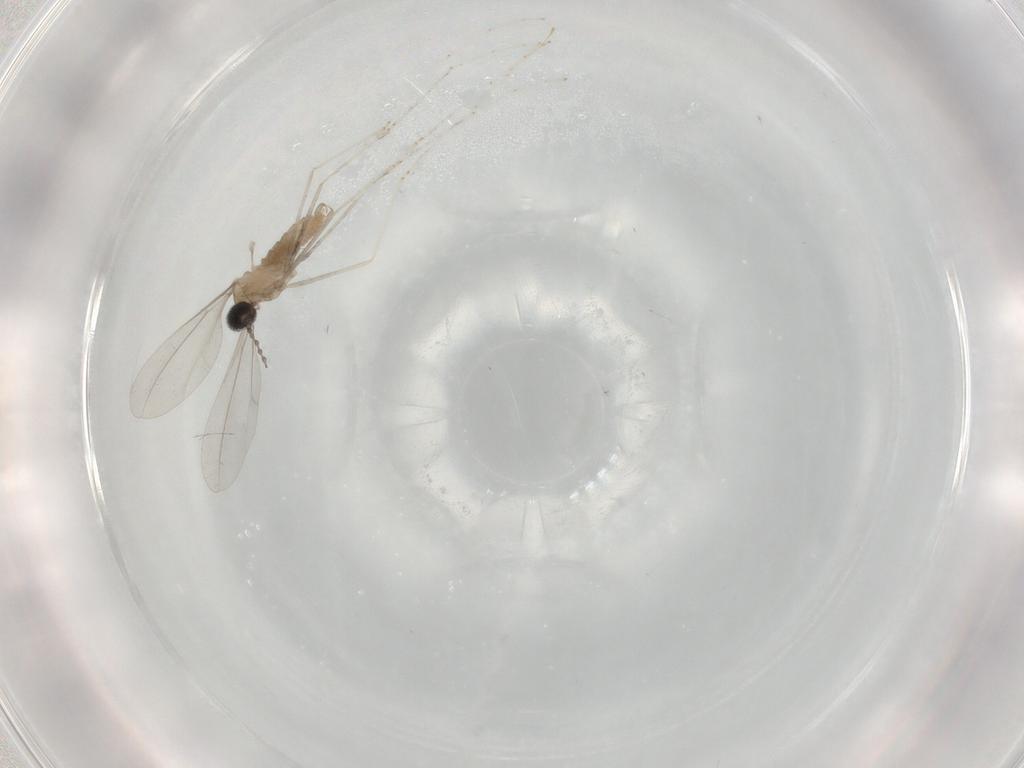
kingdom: Animalia
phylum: Arthropoda
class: Insecta
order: Diptera
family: Cecidomyiidae
